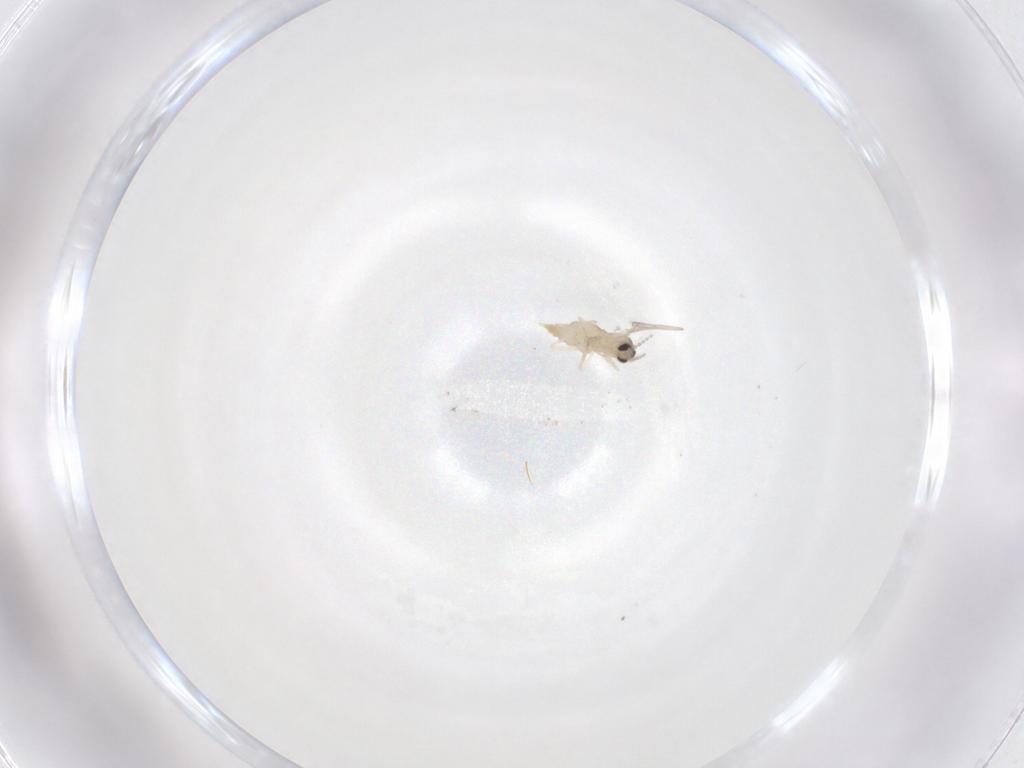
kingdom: Animalia
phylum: Arthropoda
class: Insecta
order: Diptera
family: Cecidomyiidae
